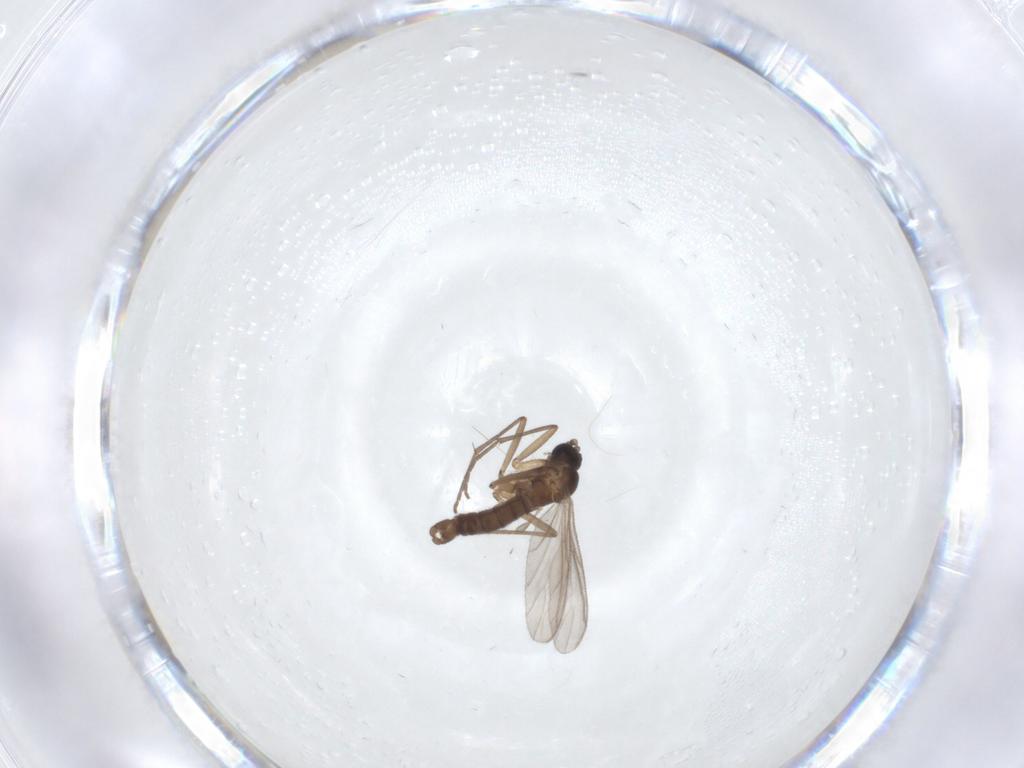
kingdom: Animalia
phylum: Arthropoda
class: Insecta
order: Diptera
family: Sciaridae
